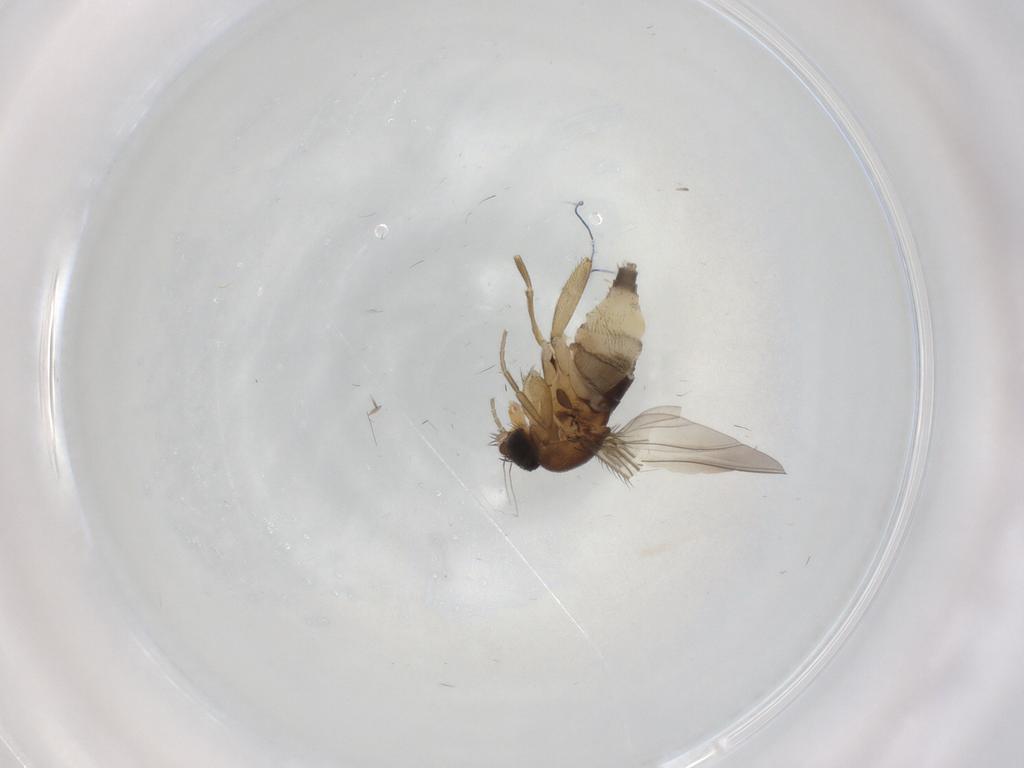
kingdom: Animalia
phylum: Arthropoda
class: Insecta
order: Diptera
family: Phoridae
